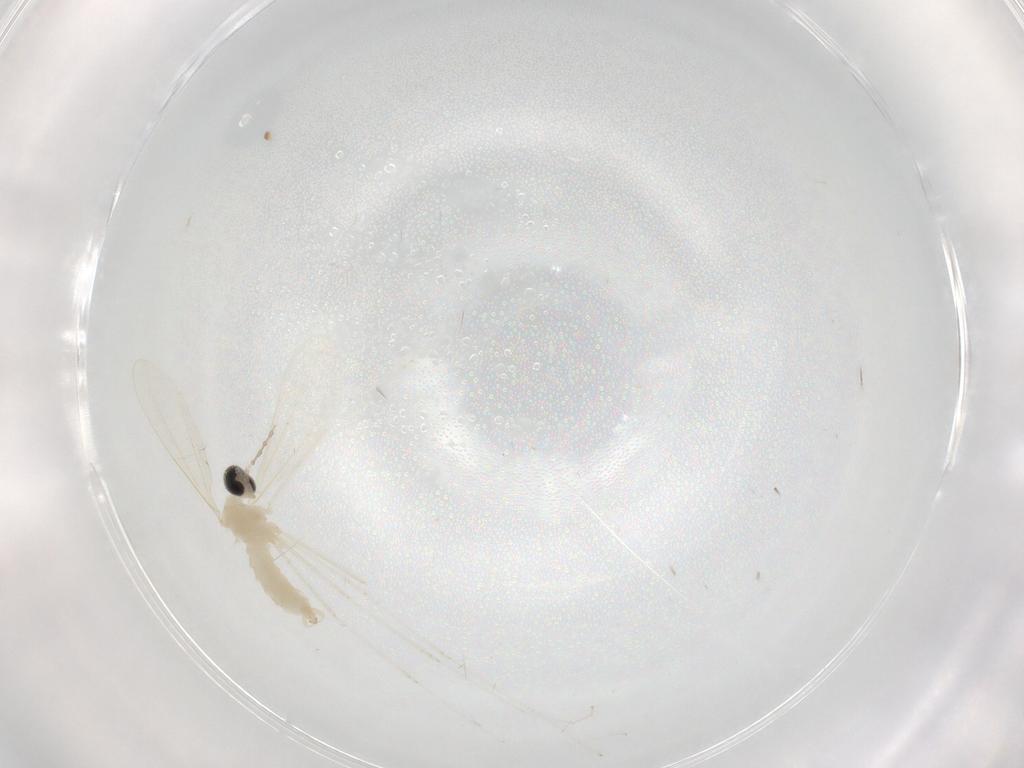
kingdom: Animalia
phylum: Arthropoda
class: Insecta
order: Diptera
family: Cecidomyiidae
